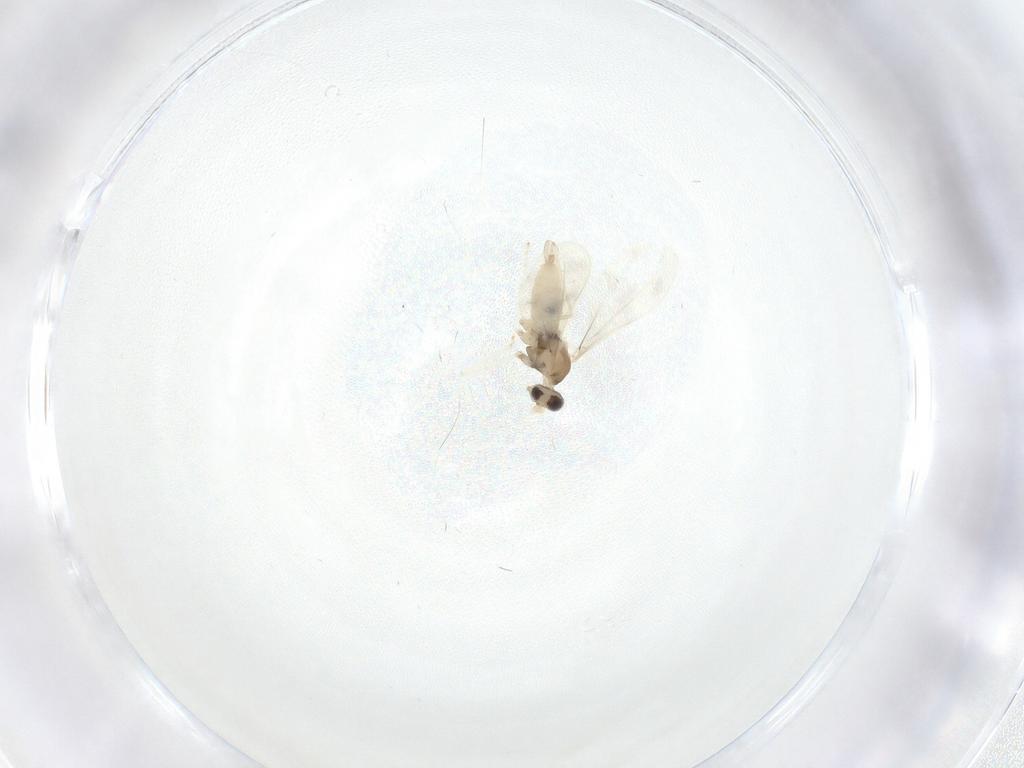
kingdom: Animalia
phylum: Arthropoda
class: Insecta
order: Diptera
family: Cecidomyiidae
